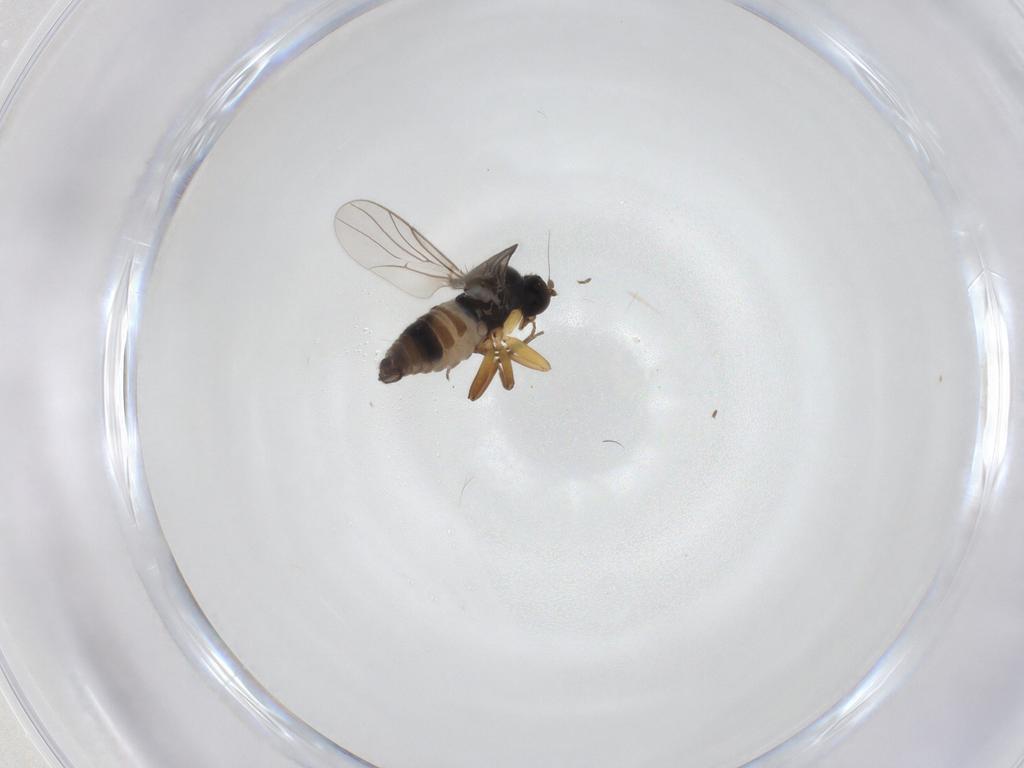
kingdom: Animalia
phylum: Arthropoda
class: Insecta
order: Diptera
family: Hybotidae
